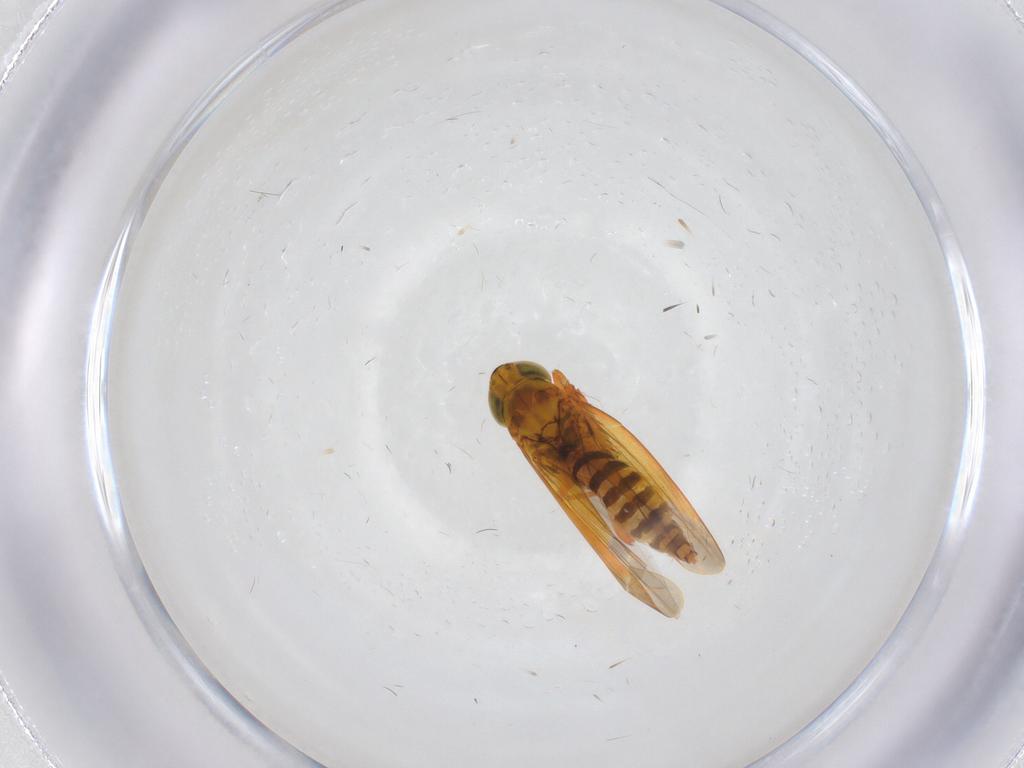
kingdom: Animalia
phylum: Arthropoda
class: Insecta
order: Hemiptera
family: Cicadellidae
